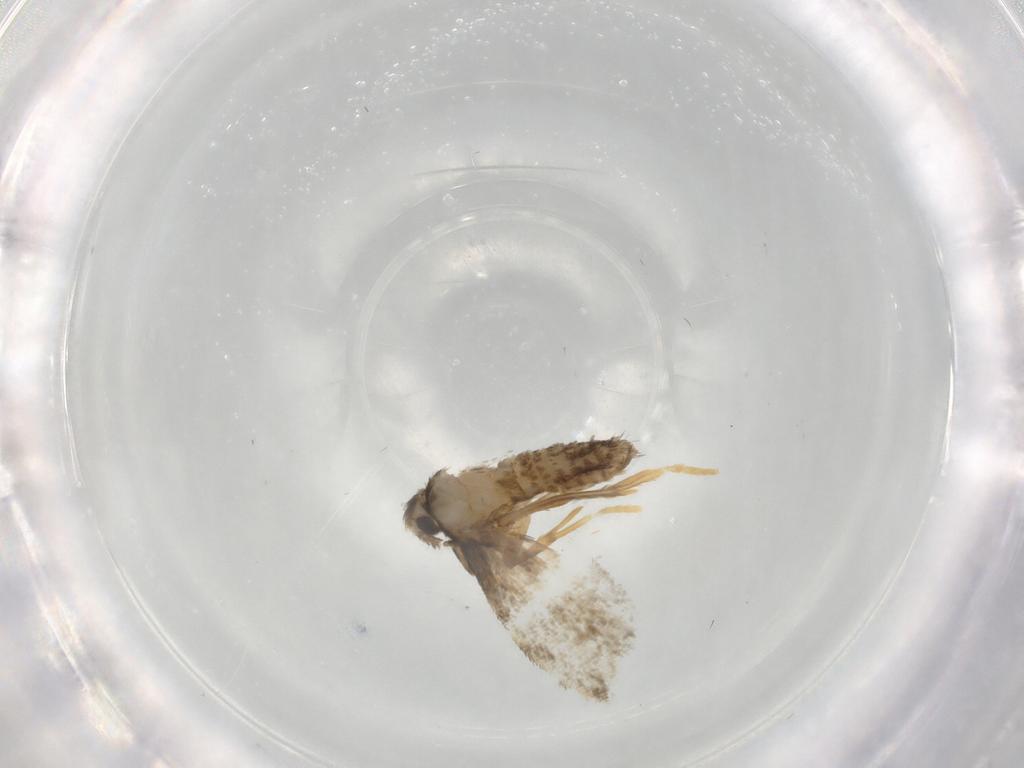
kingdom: Animalia
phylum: Arthropoda
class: Insecta
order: Lepidoptera
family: Psychidae
